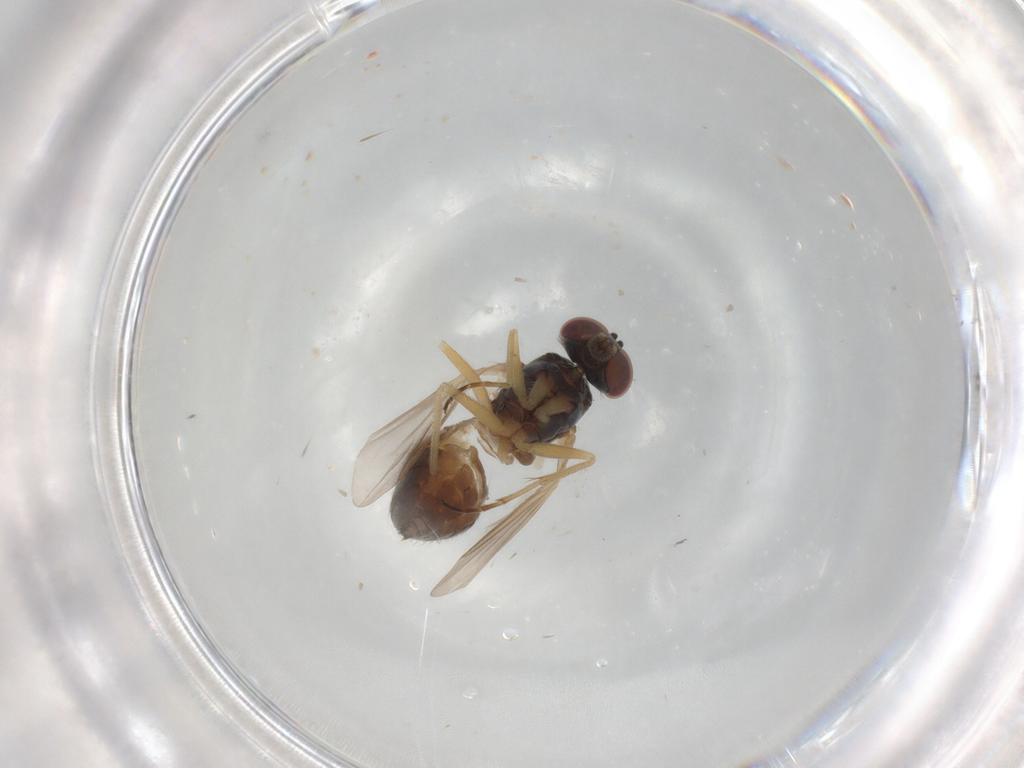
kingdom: Animalia
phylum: Arthropoda
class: Insecta
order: Diptera
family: Dolichopodidae
